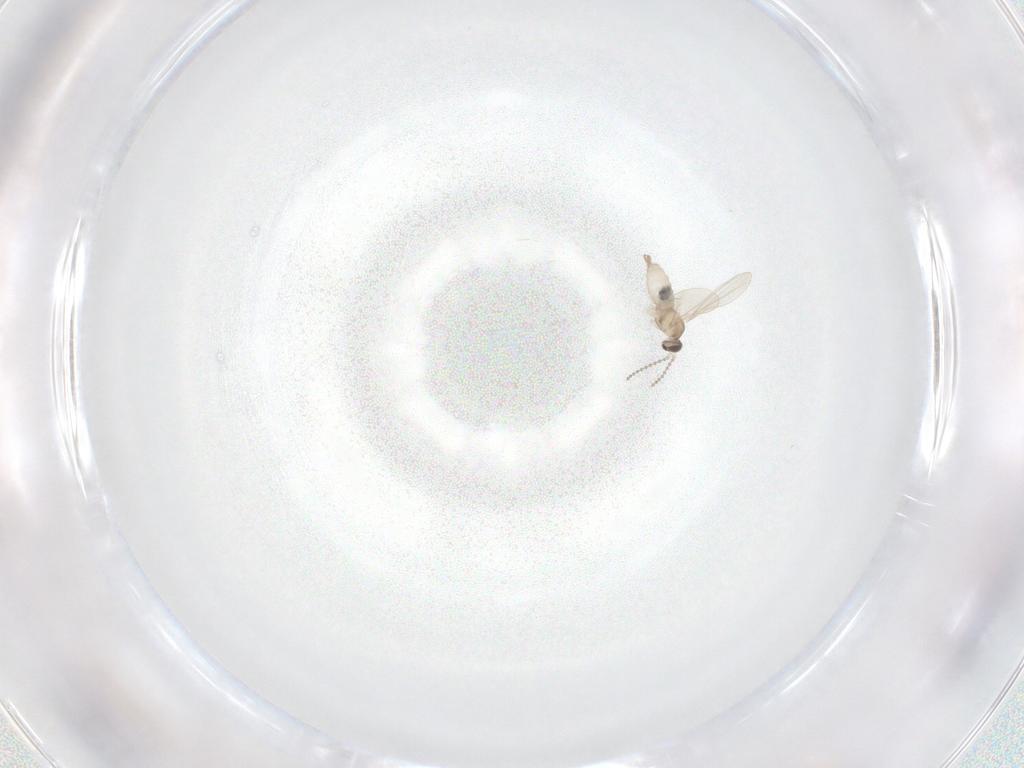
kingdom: Animalia
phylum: Arthropoda
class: Insecta
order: Diptera
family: Cecidomyiidae
